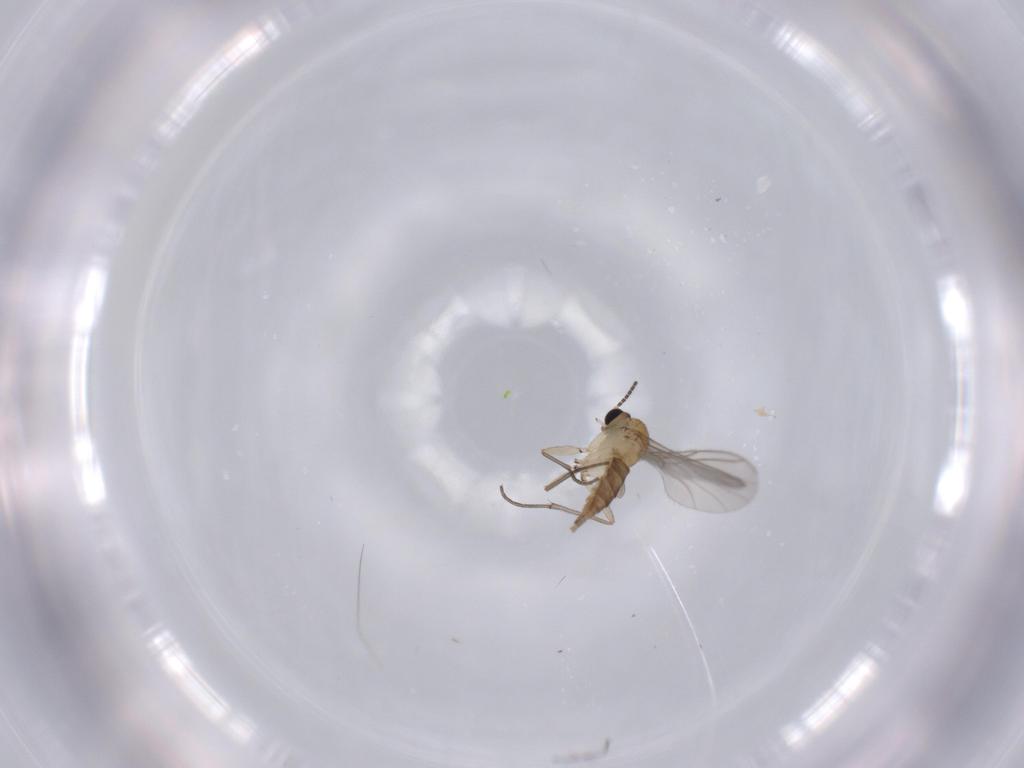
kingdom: Animalia
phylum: Arthropoda
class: Insecta
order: Diptera
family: Sciaridae
